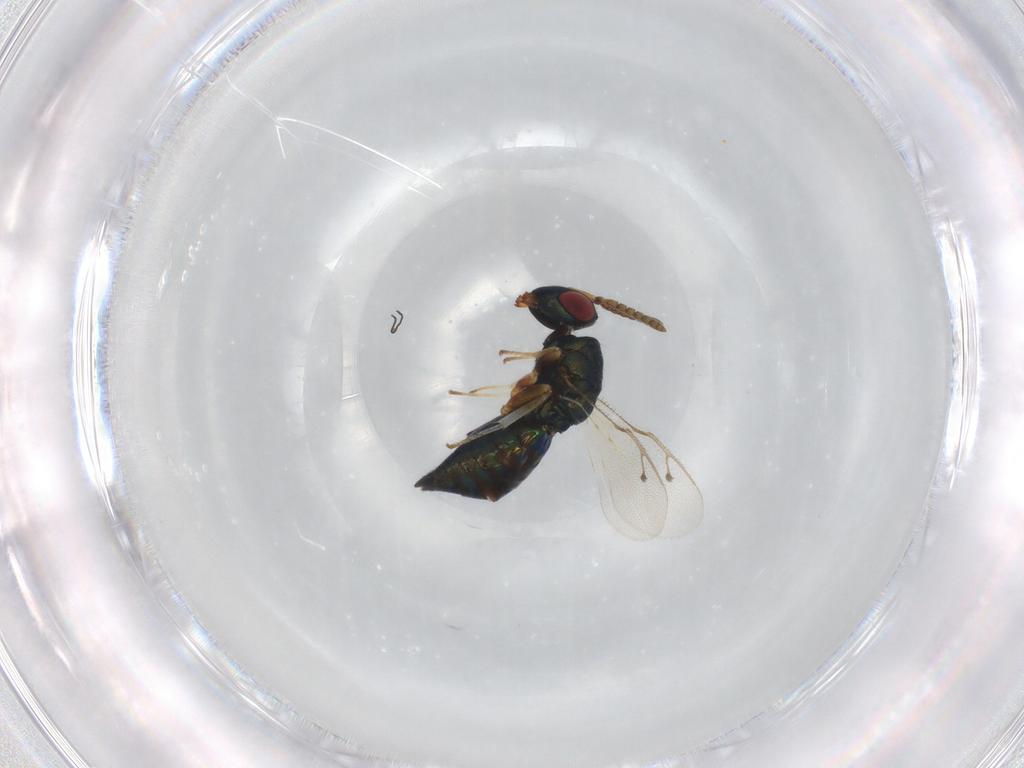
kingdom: Animalia
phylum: Arthropoda
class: Insecta
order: Hymenoptera
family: Pteromalidae
